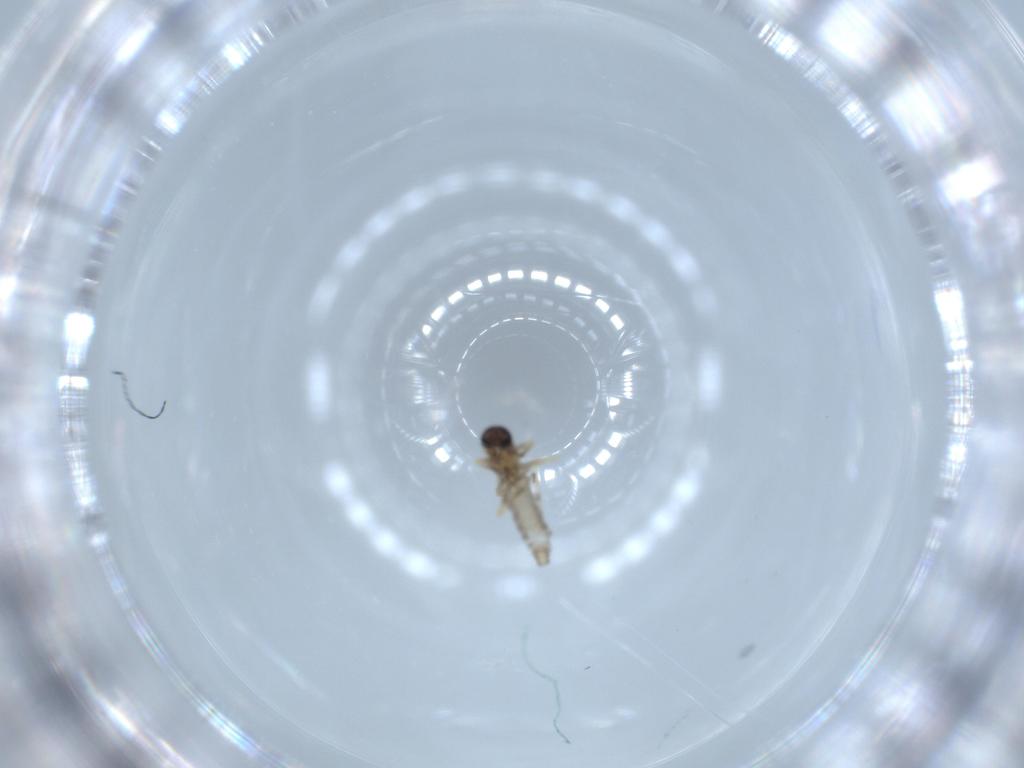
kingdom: Animalia
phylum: Arthropoda
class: Insecta
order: Diptera
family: Ceratopogonidae
